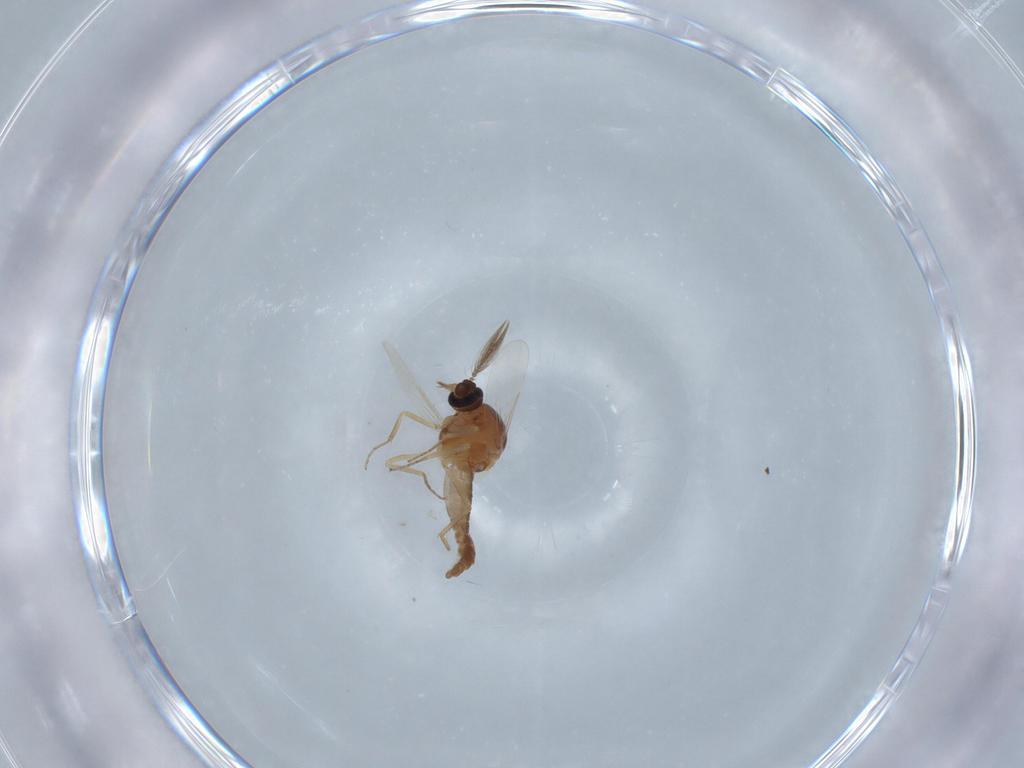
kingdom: Animalia
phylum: Arthropoda
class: Insecta
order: Diptera
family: Ceratopogonidae
